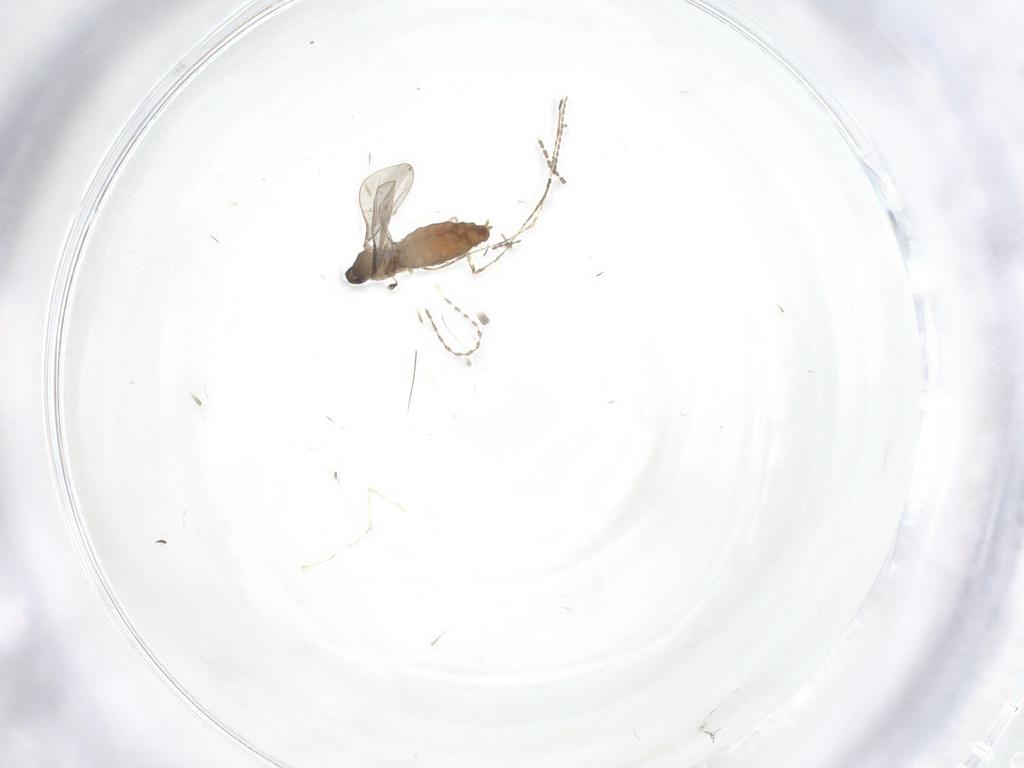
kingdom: Animalia
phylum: Arthropoda
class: Insecta
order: Diptera
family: Psychodidae
